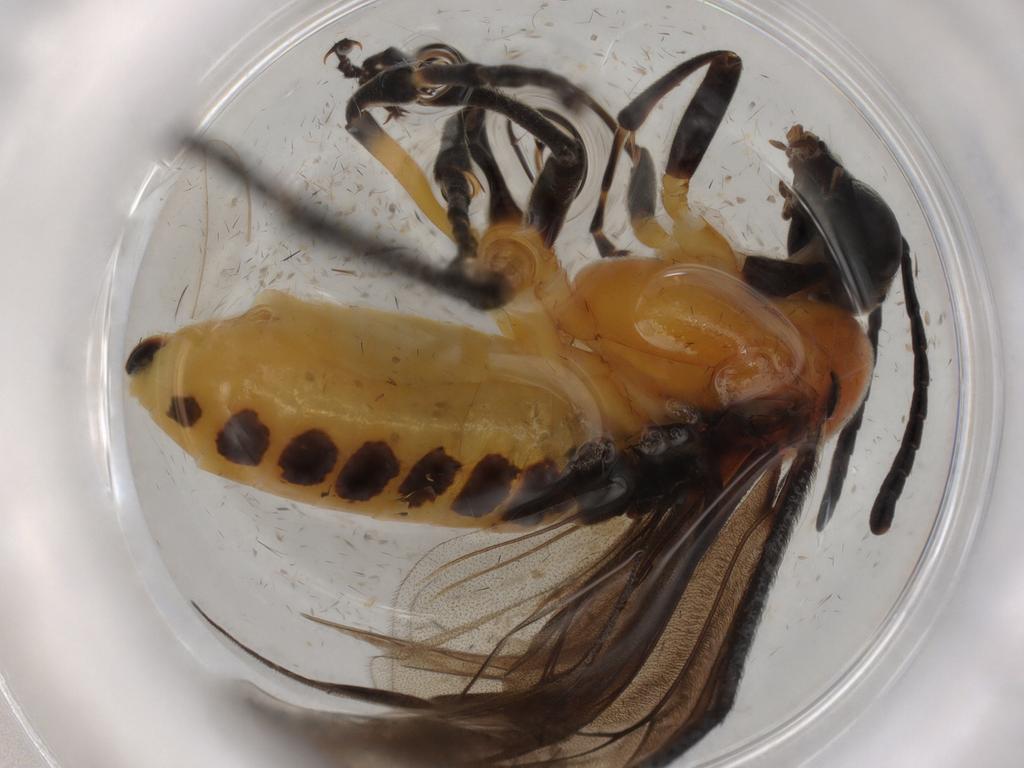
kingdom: Animalia
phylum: Arthropoda
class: Insecta
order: Hymenoptera
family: Tenthredinidae
